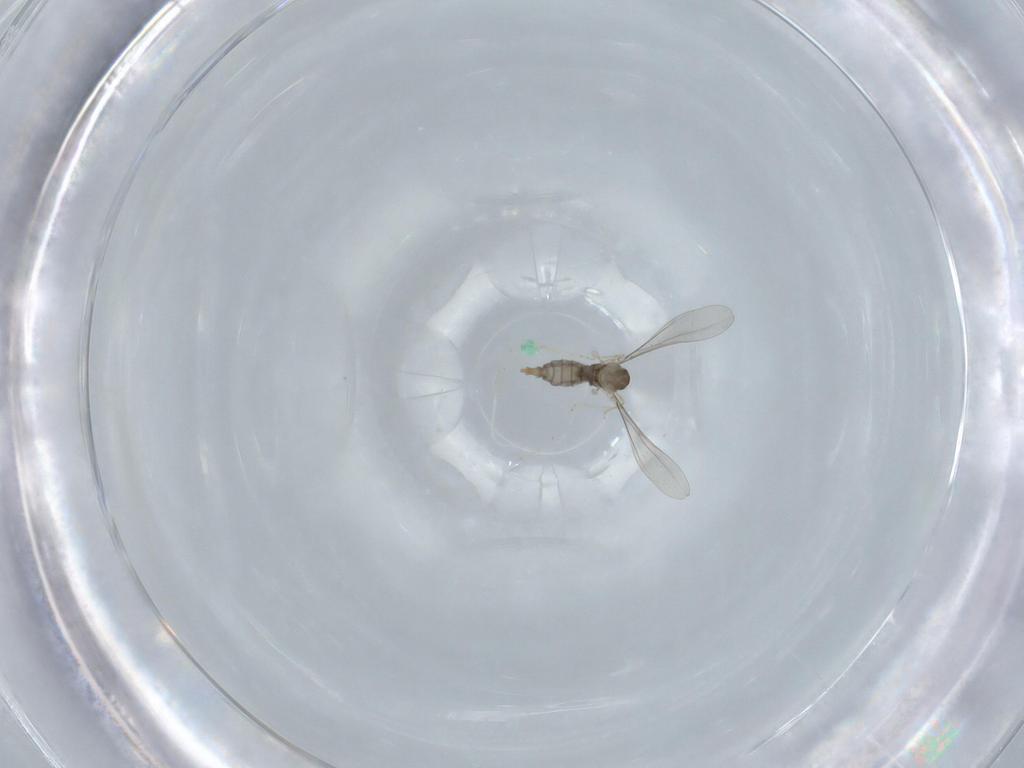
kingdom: Animalia
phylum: Arthropoda
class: Insecta
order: Diptera
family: Cecidomyiidae
